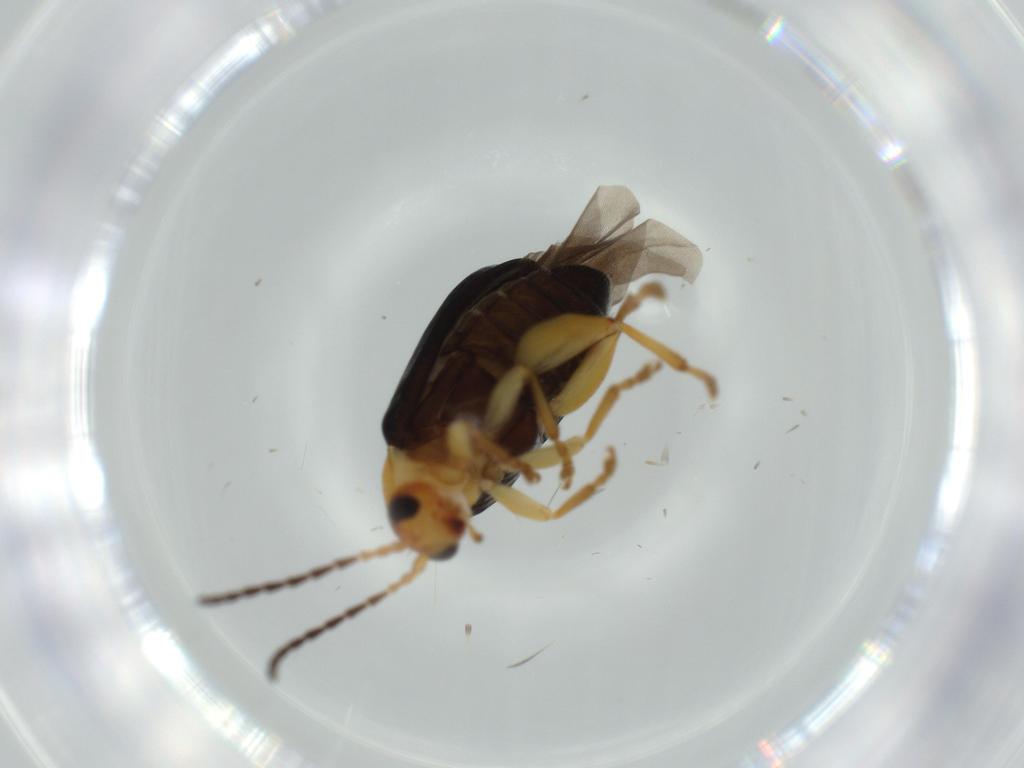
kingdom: Animalia
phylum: Arthropoda
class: Insecta
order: Coleoptera
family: Chrysomelidae
